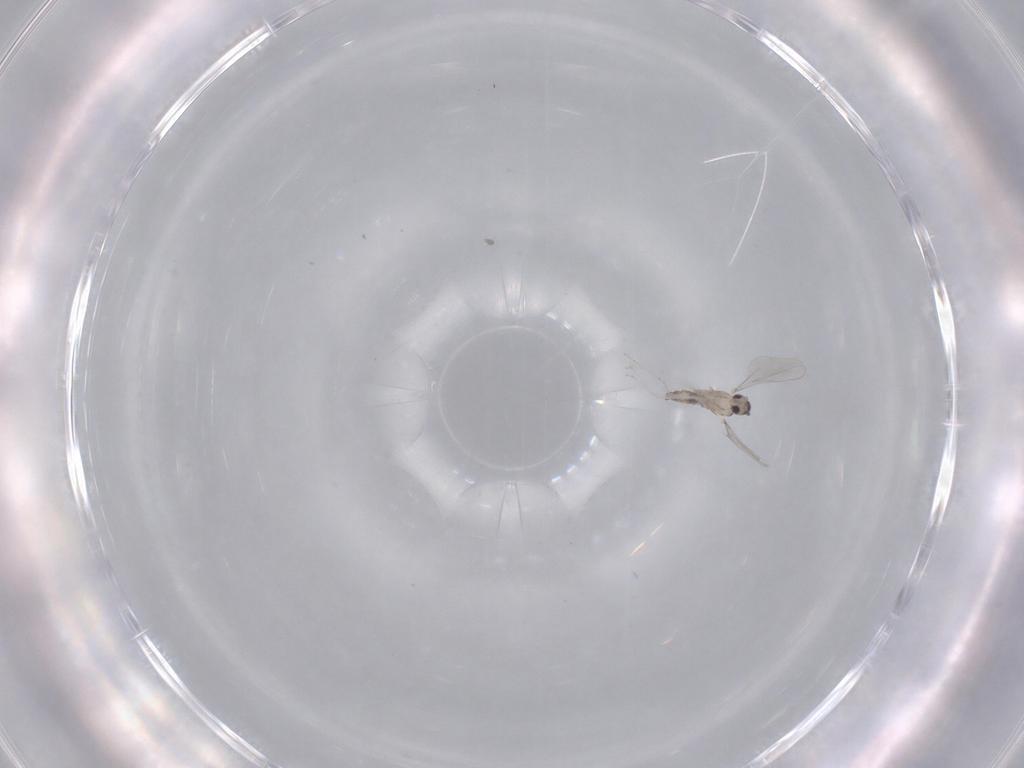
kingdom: Animalia
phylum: Arthropoda
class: Insecta
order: Diptera
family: Cecidomyiidae
